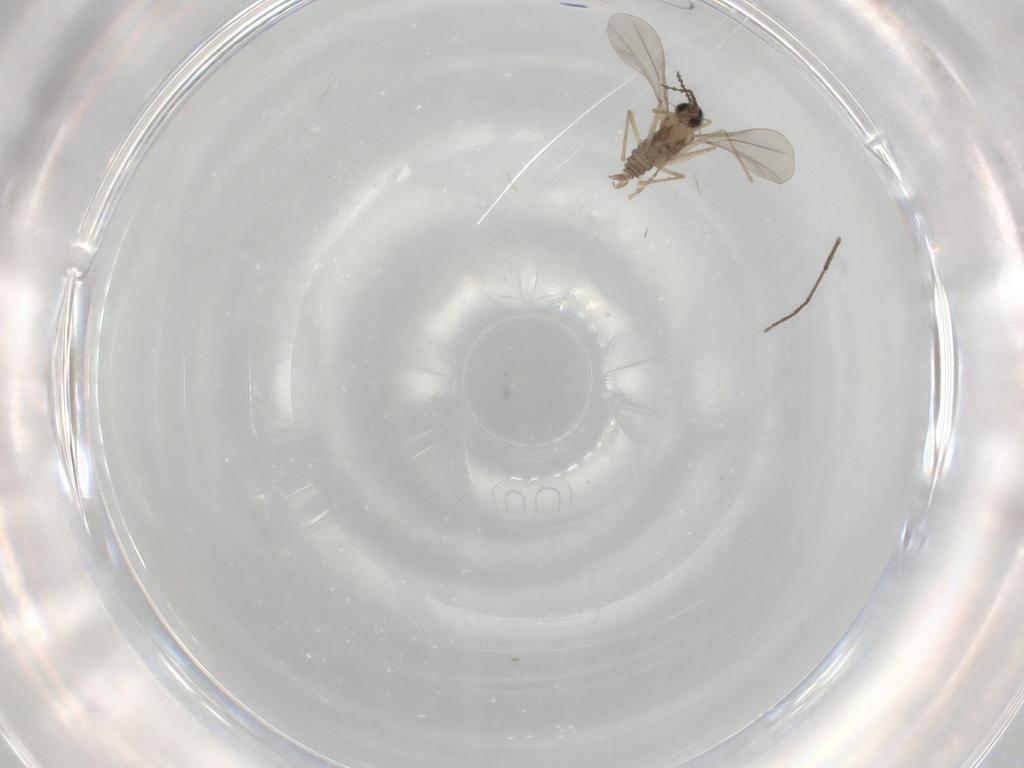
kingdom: Animalia
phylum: Arthropoda
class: Insecta
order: Diptera
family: Cecidomyiidae
